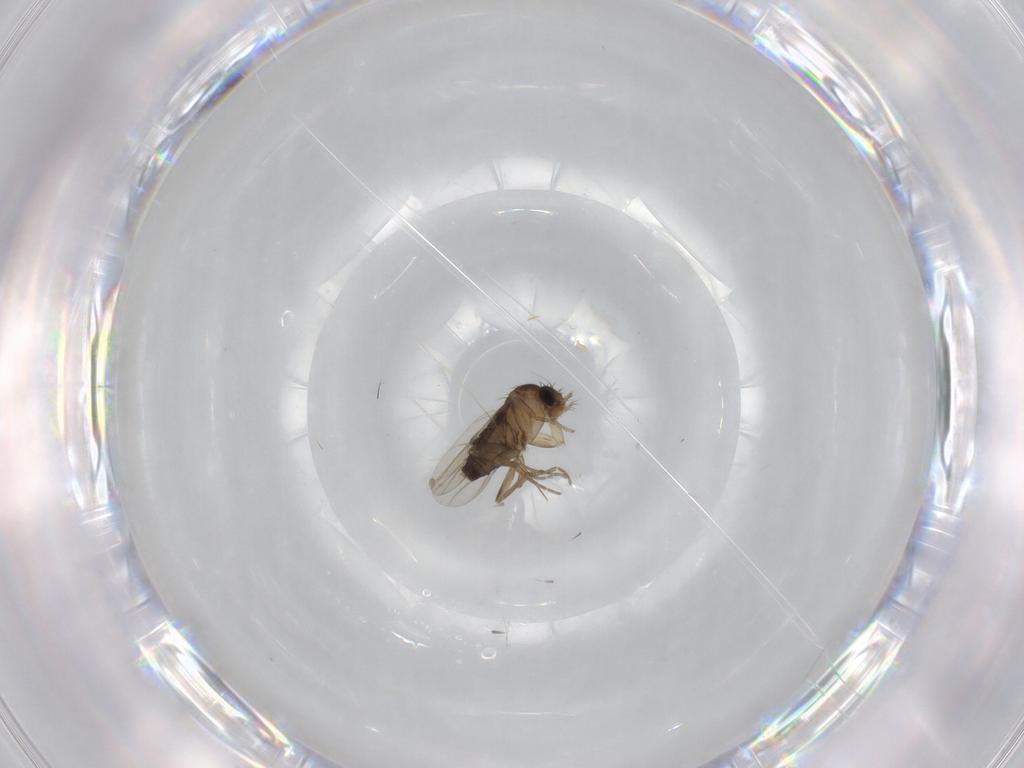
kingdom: Animalia
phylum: Arthropoda
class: Insecta
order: Diptera
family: Phoridae
